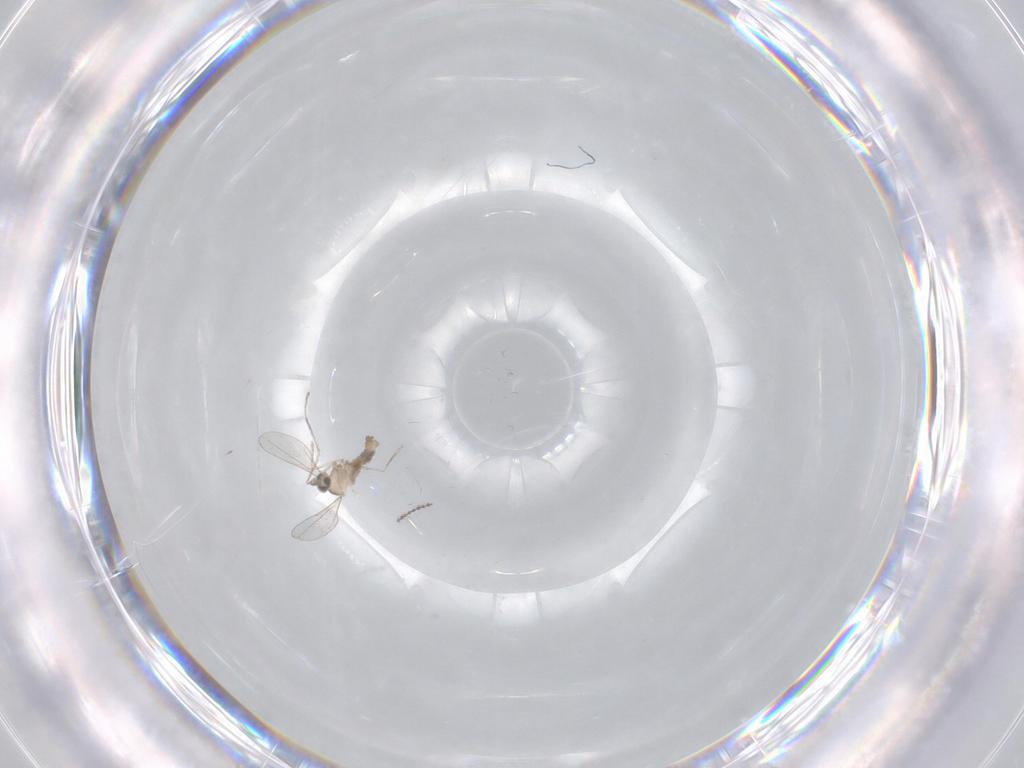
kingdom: Animalia
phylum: Arthropoda
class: Insecta
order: Diptera
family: Cecidomyiidae
